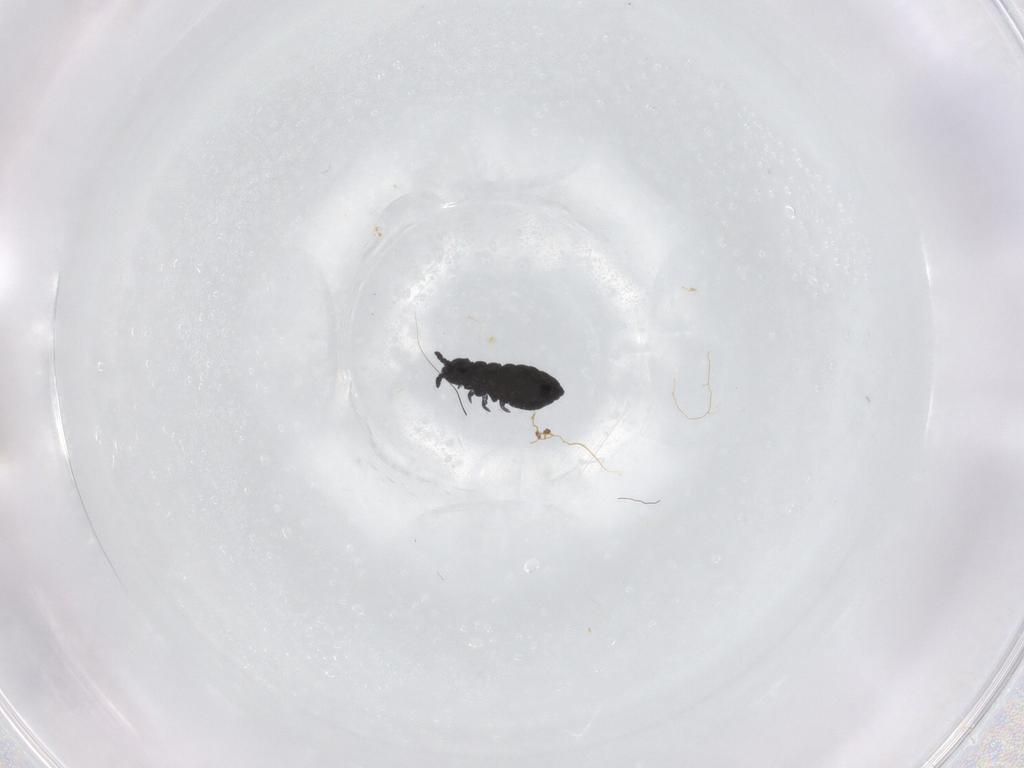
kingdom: Animalia
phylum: Arthropoda
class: Collembola
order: Poduromorpha
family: Hypogastruridae
